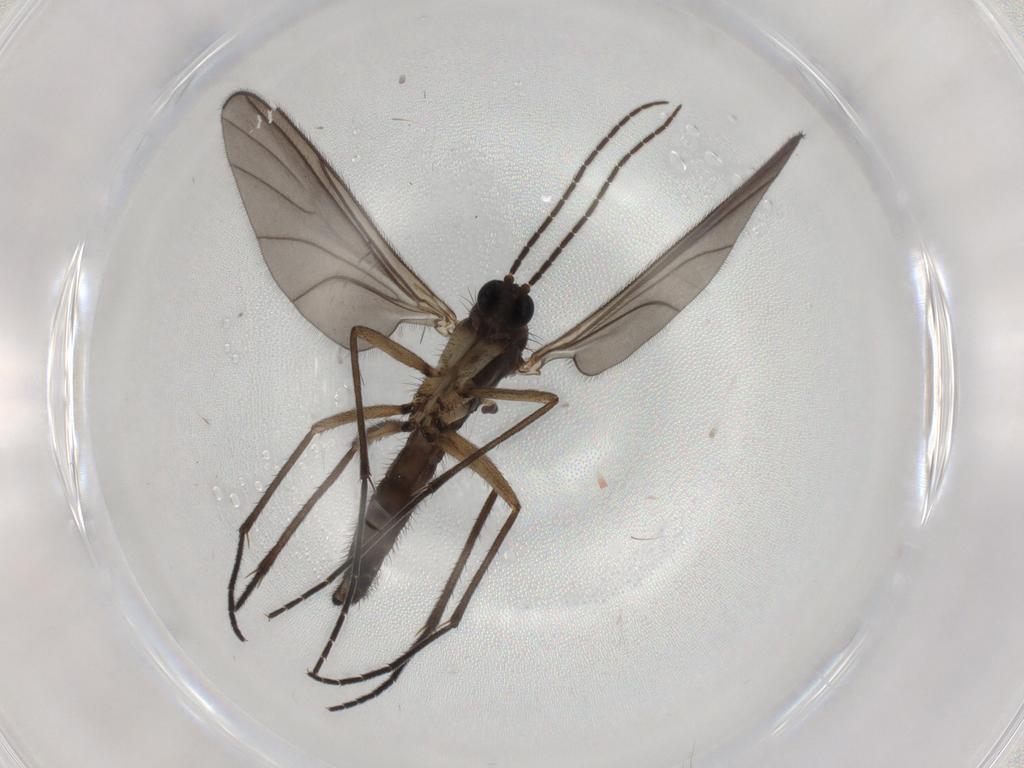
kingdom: Animalia
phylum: Arthropoda
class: Insecta
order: Diptera
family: Sciaridae
